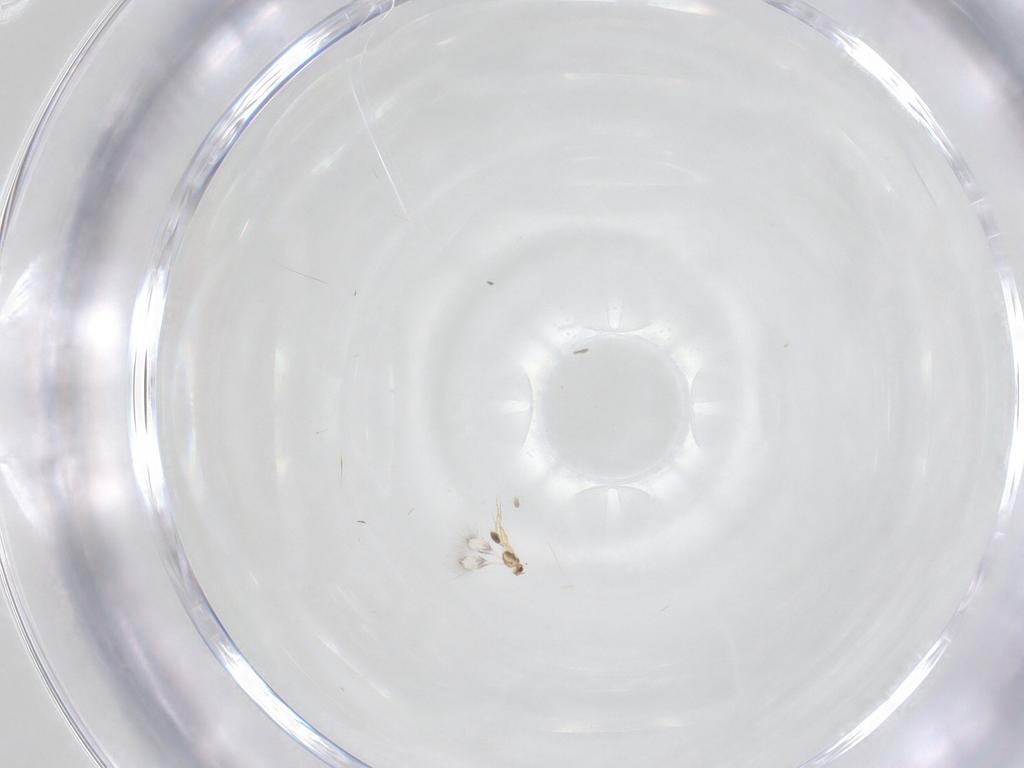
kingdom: Animalia
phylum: Arthropoda
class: Insecta
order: Hymenoptera
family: Mymarommatidae
